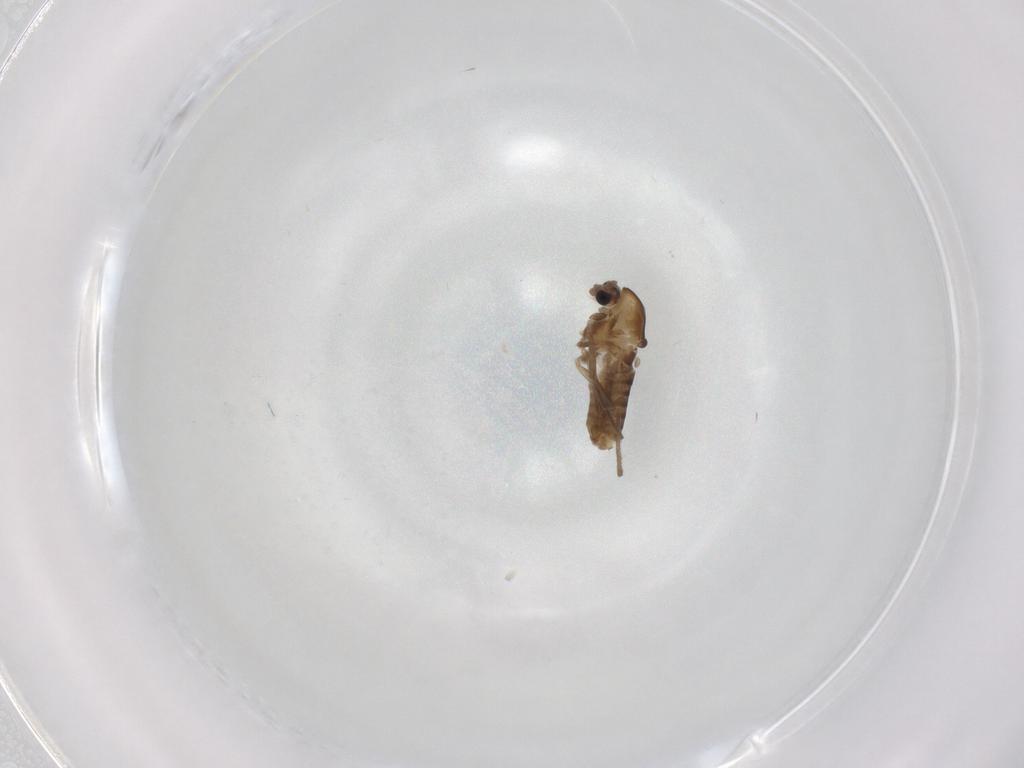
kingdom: Animalia
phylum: Arthropoda
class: Insecta
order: Diptera
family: Chironomidae
